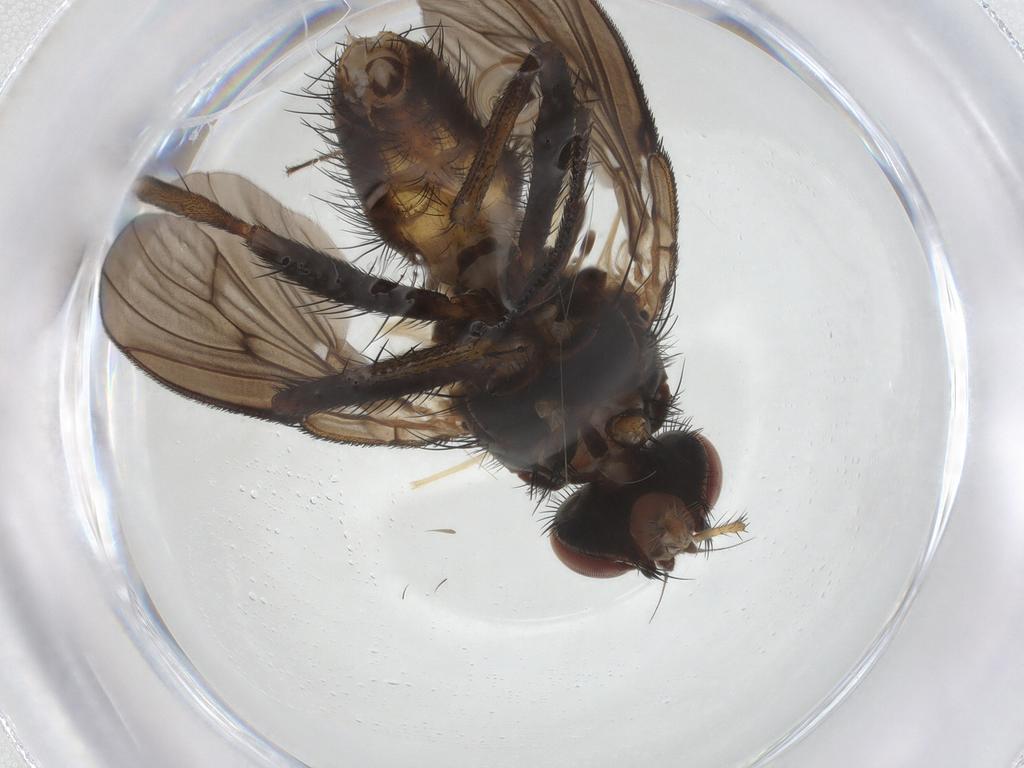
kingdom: Animalia
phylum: Arthropoda
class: Insecta
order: Diptera
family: Muscidae
